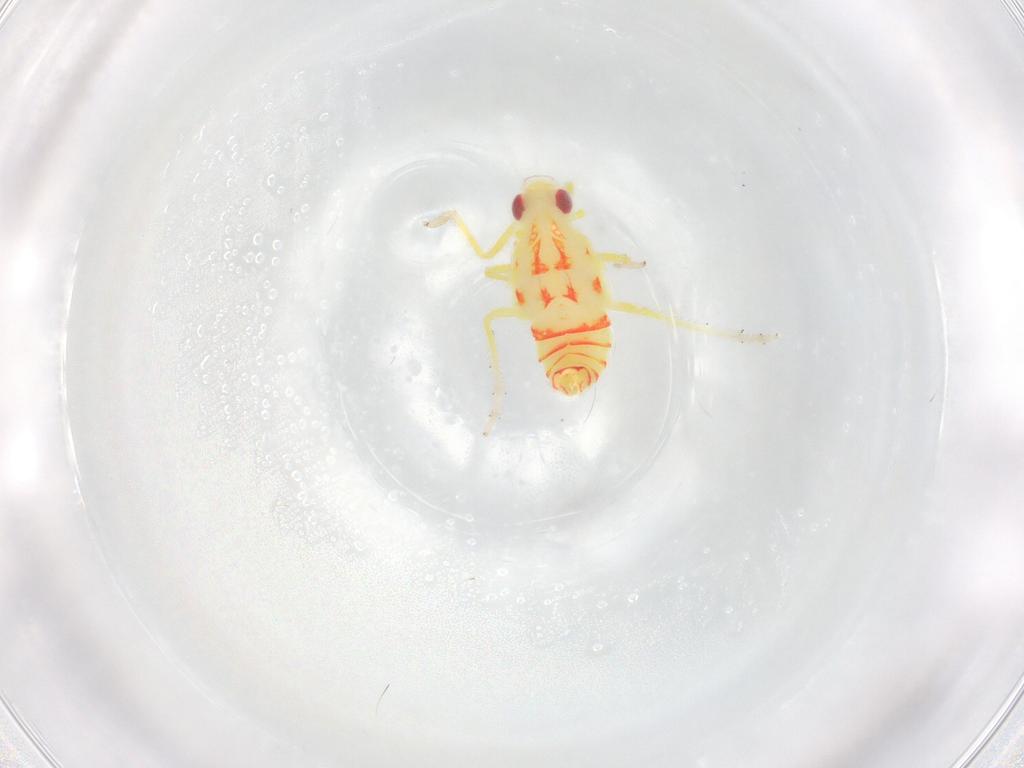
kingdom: Animalia
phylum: Arthropoda
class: Insecta
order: Hemiptera
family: Tropiduchidae
